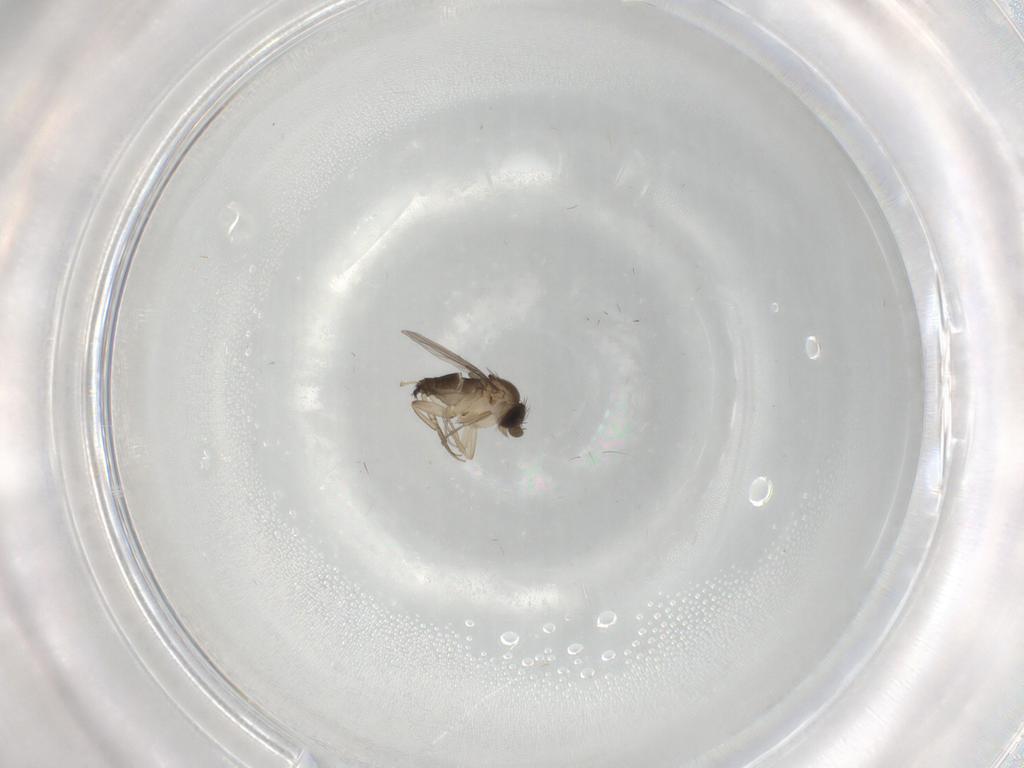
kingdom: Animalia
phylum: Arthropoda
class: Insecta
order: Diptera
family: Phoridae
